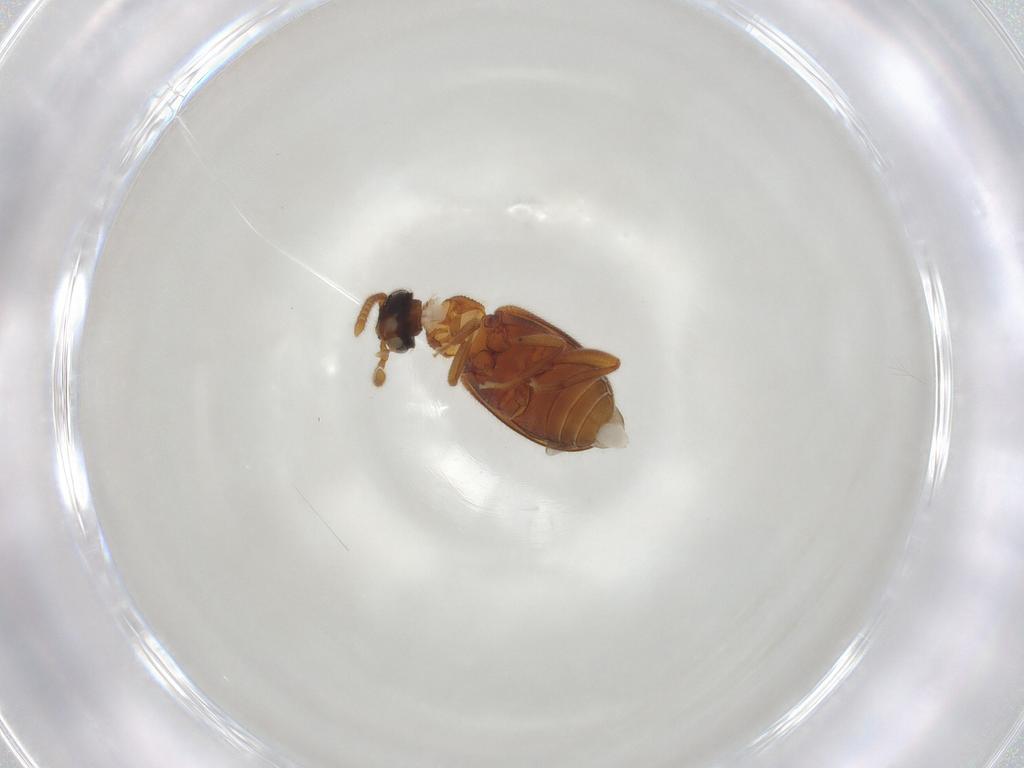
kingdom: Animalia
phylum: Arthropoda
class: Insecta
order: Coleoptera
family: Aderidae
